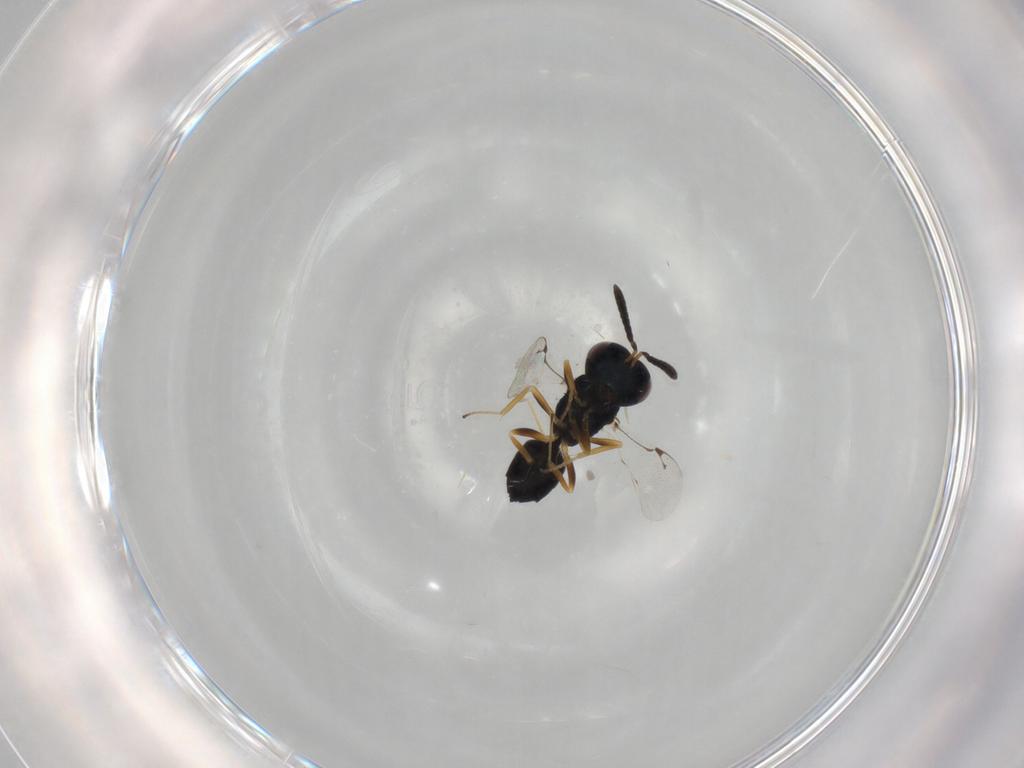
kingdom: Animalia
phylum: Arthropoda
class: Insecta
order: Hymenoptera
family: Pteromalidae
